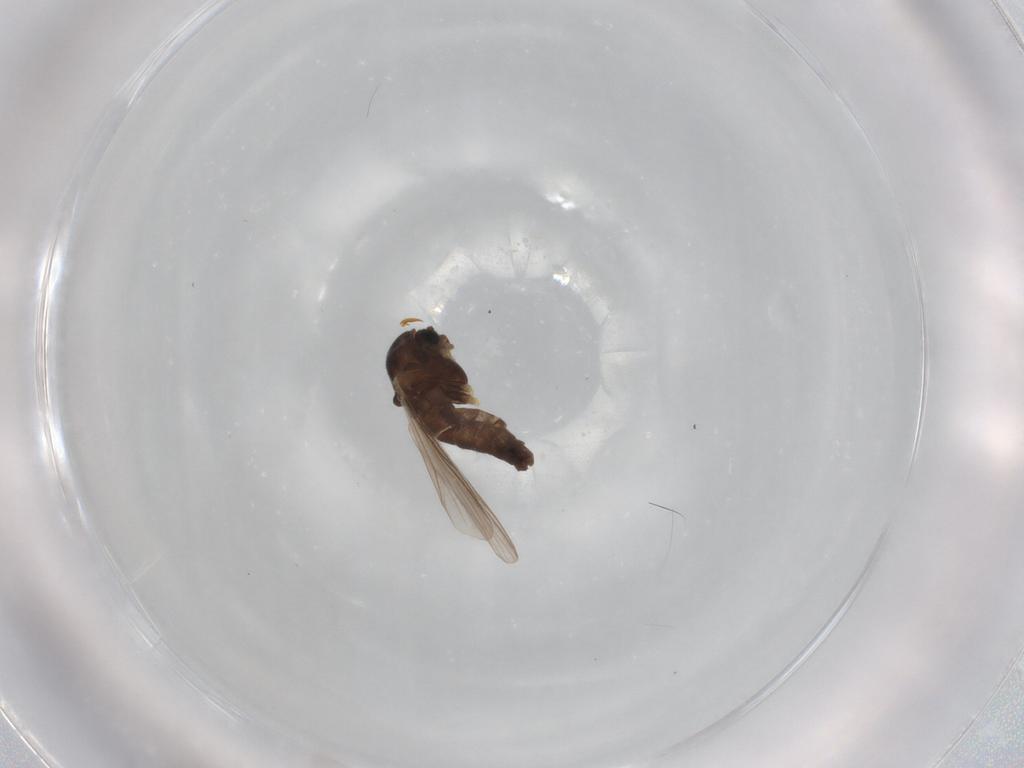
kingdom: Animalia
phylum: Arthropoda
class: Insecta
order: Diptera
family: Chironomidae
